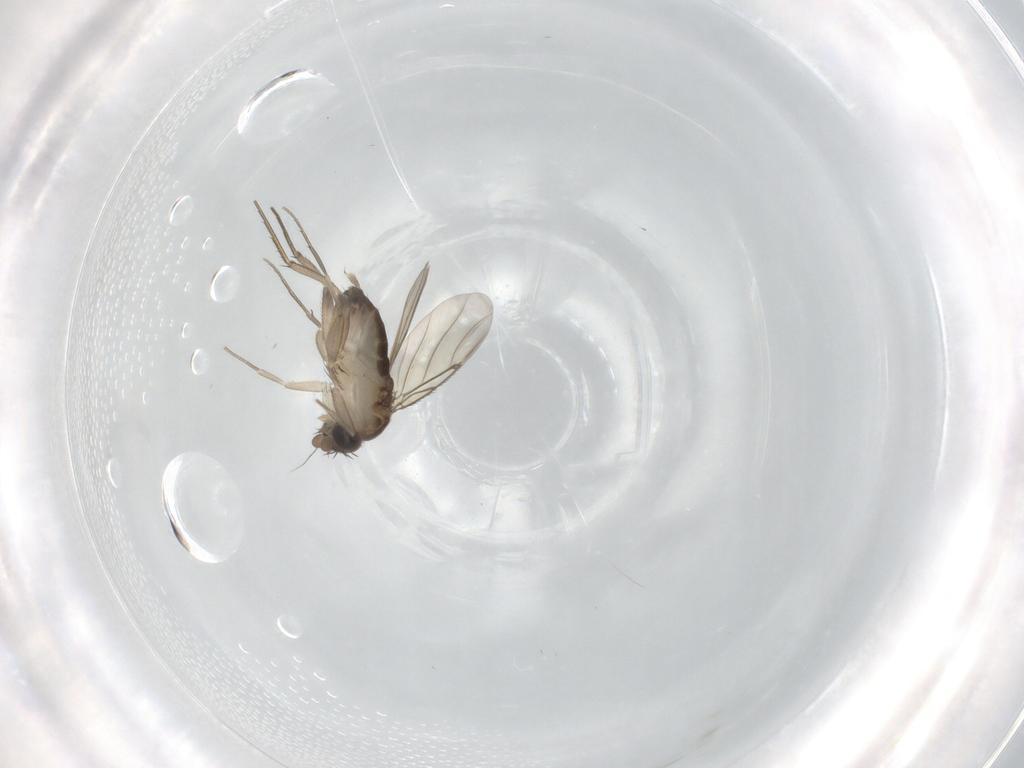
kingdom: Animalia
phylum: Arthropoda
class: Insecta
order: Diptera
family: Phoridae
